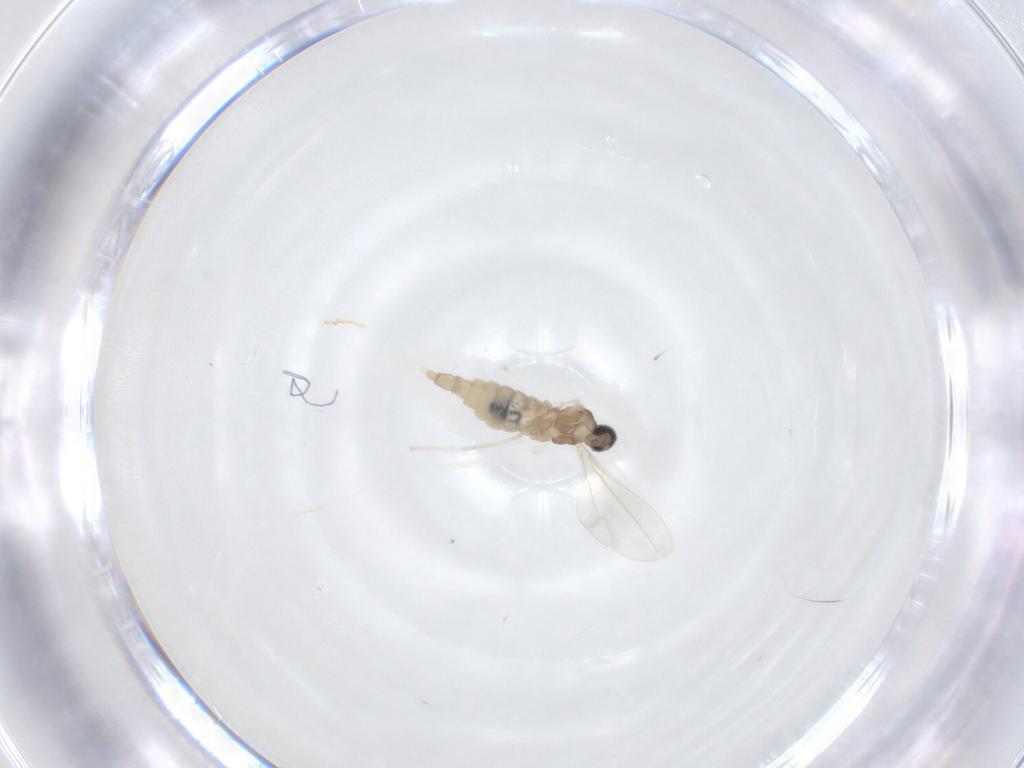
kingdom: Animalia
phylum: Arthropoda
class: Insecta
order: Diptera
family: Cecidomyiidae
